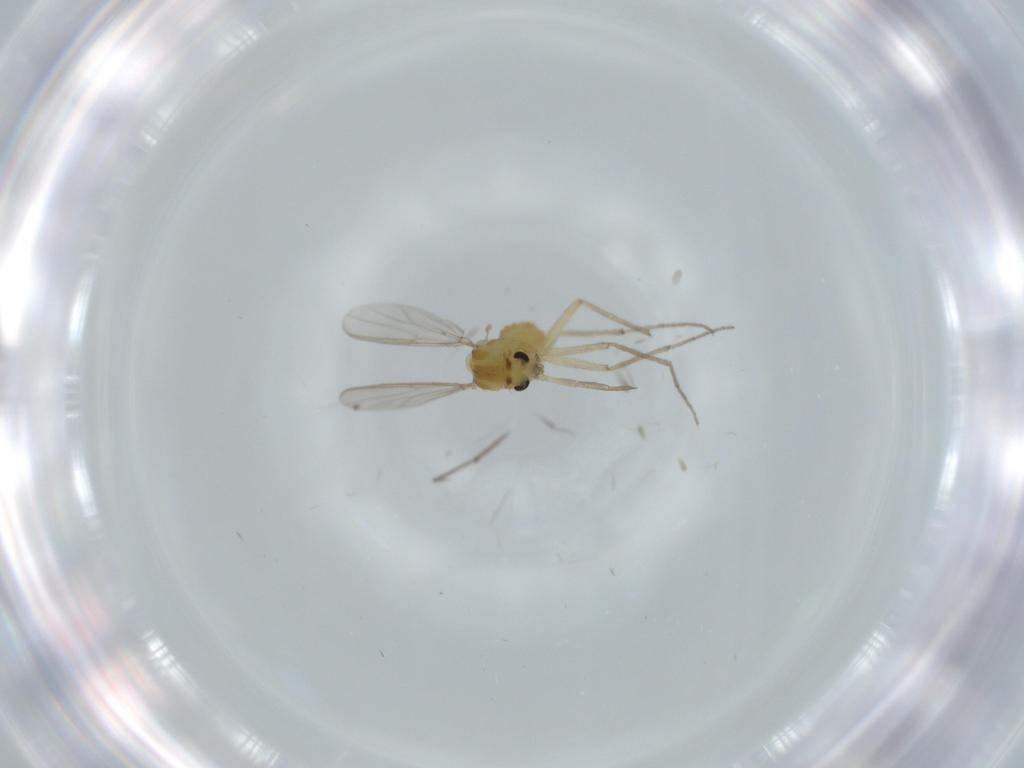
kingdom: Animalia
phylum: Arthropoda
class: Insecta
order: Diptera
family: Chironomidae
